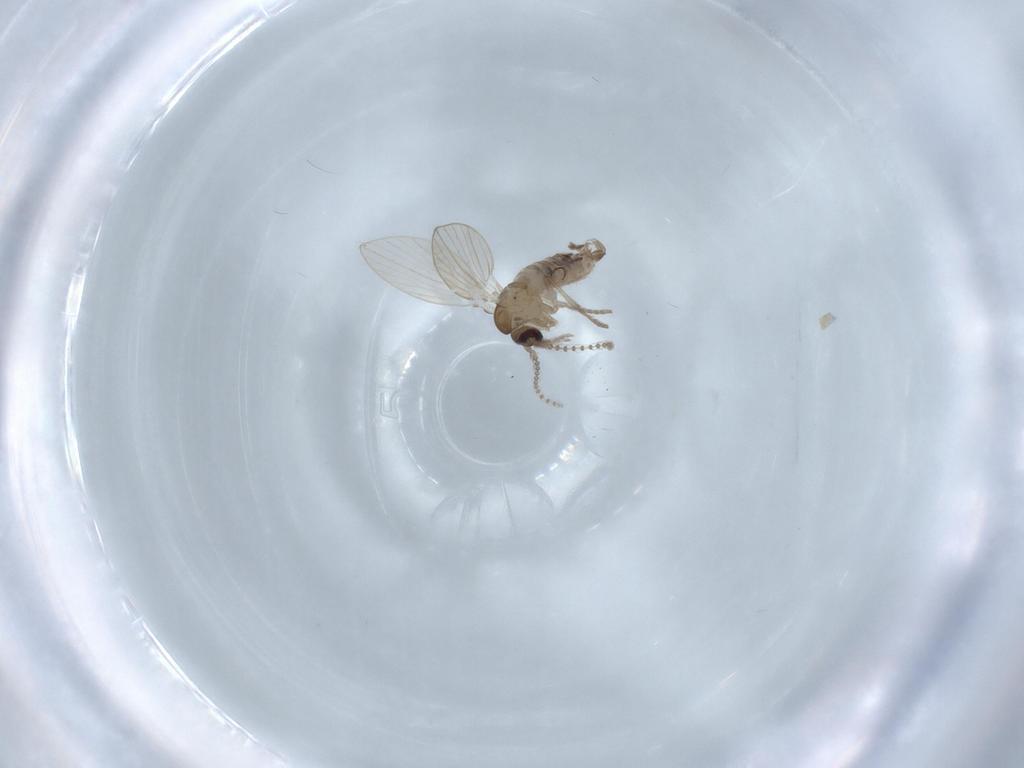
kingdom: Animalia
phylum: Arthropoda
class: Insecta
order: Diptera
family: Psychodidae
